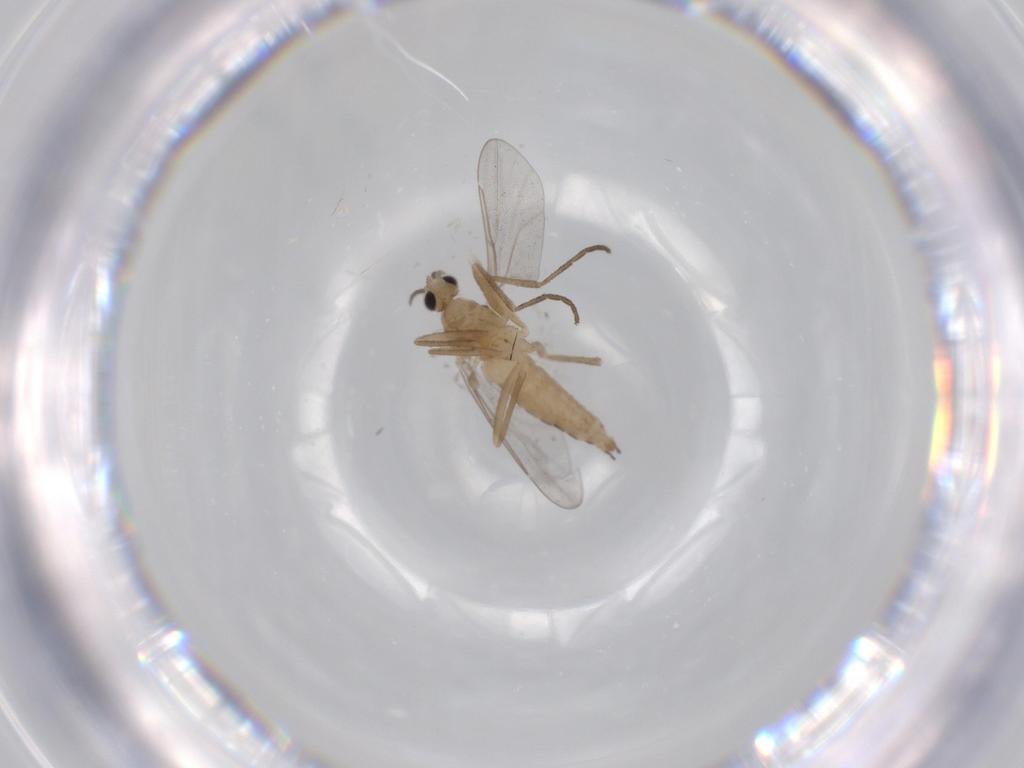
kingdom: Animalia
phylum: Arthropoda
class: Insecta
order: Diptera
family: Cecidomyiidae
